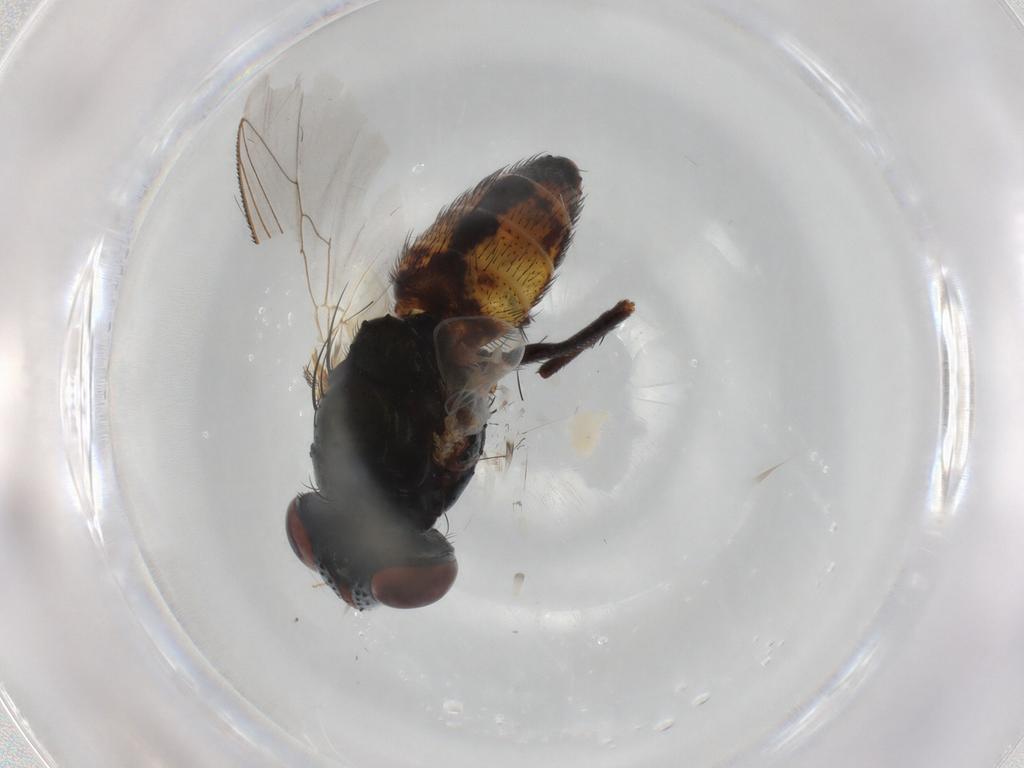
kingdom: Animalia
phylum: Arthropoda
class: Insecta
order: Diptera
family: Sarcophagidae
